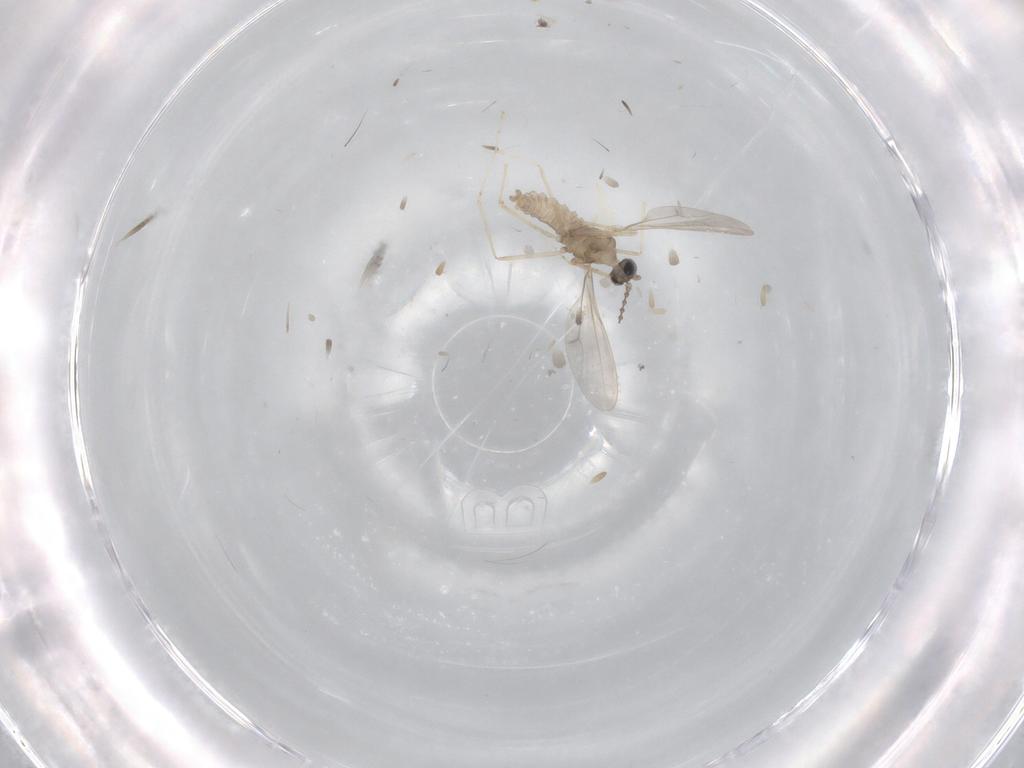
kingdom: Animalia
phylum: Arthropoda
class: Insecta
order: Diptera
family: Cecidomyiidae
